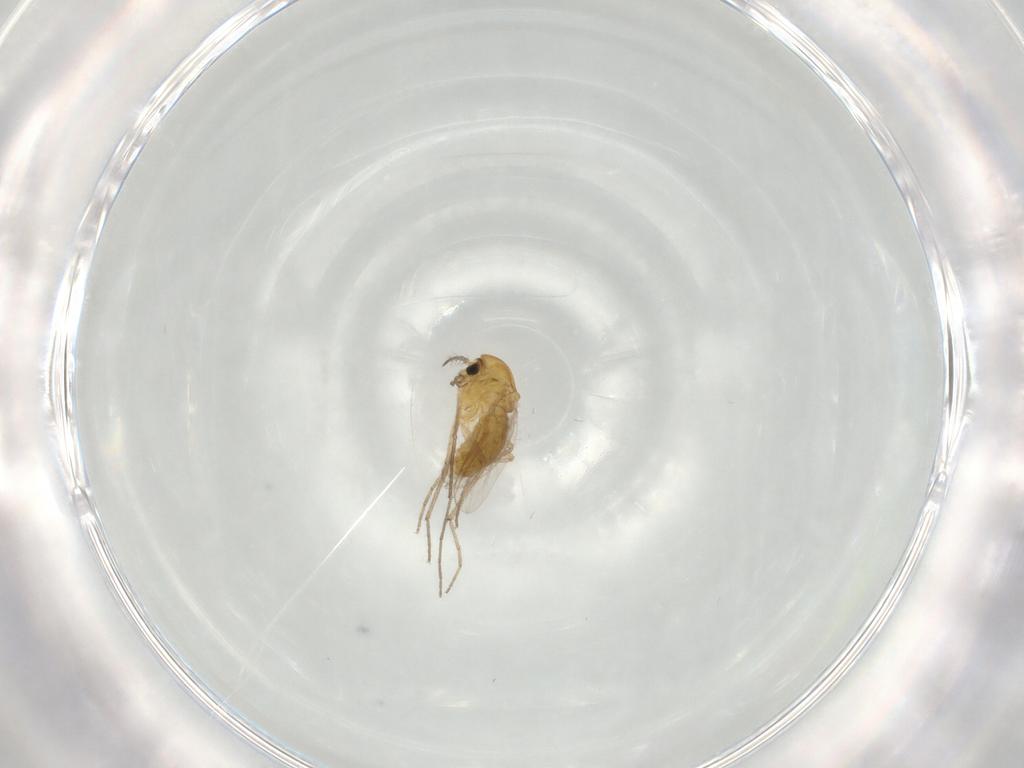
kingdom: Animalia
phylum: Arthropoda
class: Insecta
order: Diptera
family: Chironomidae
